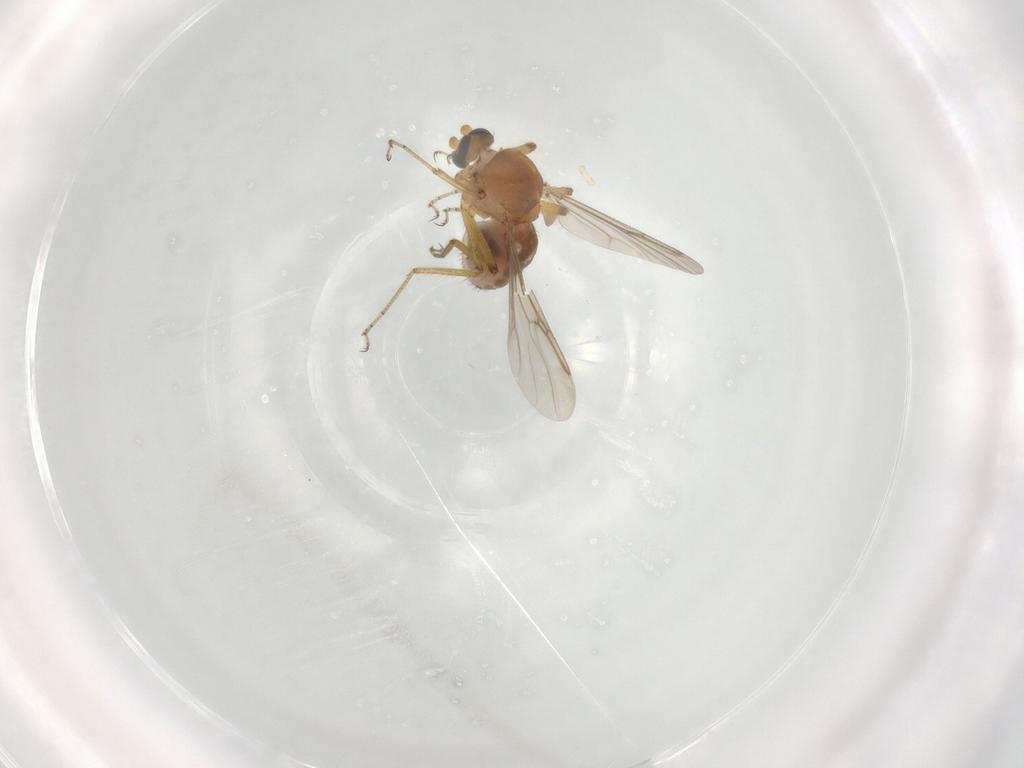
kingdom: Animalia
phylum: Arthropoda
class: Insecta
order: Diptera
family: Ceratopogonidae
